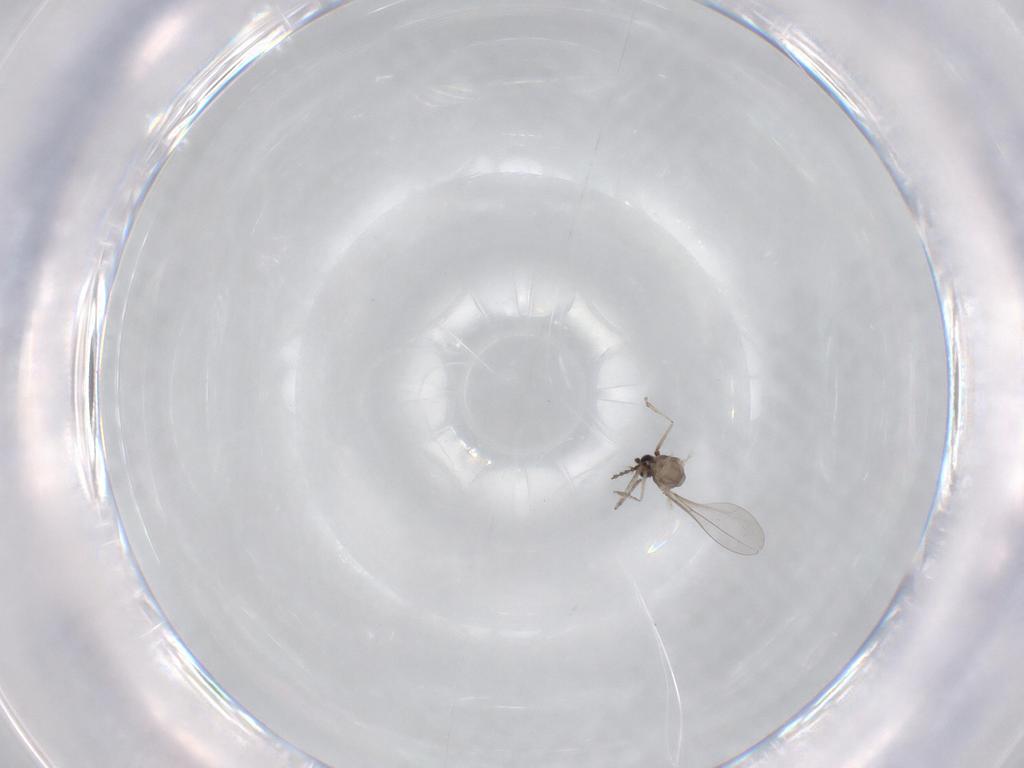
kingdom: Animalia
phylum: Arthropoda
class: Insecta
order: Diptera
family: Chironomidae
